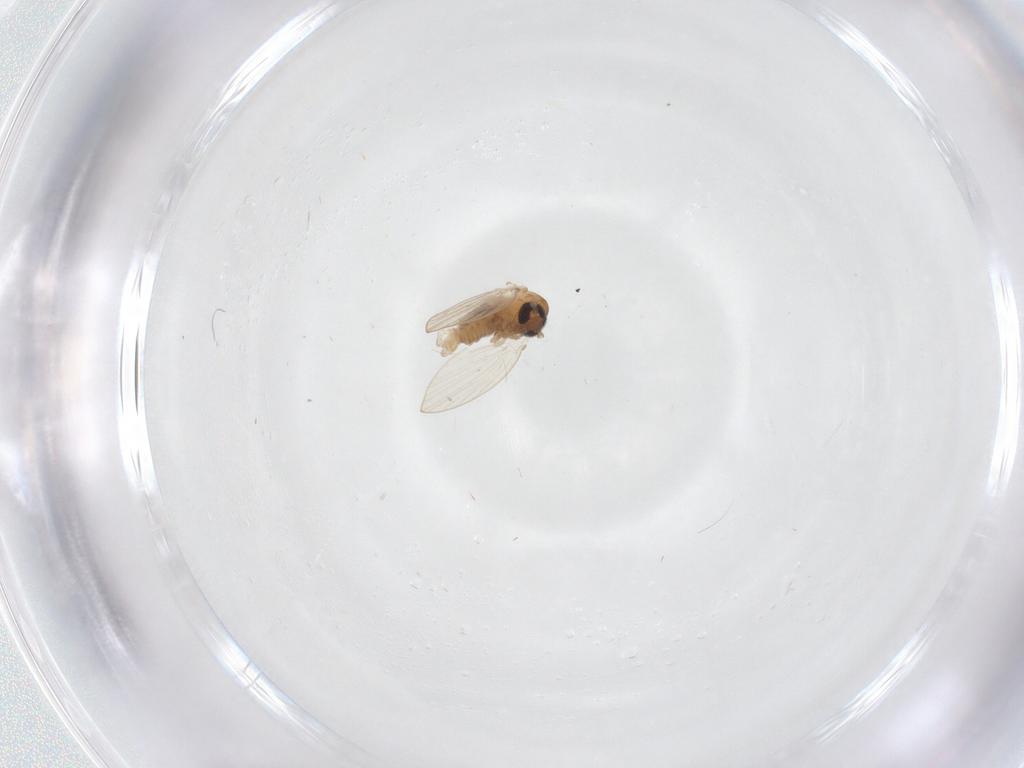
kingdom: Animalia
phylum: Arthropoda
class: Insecta
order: Diptera
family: Psychodidae
